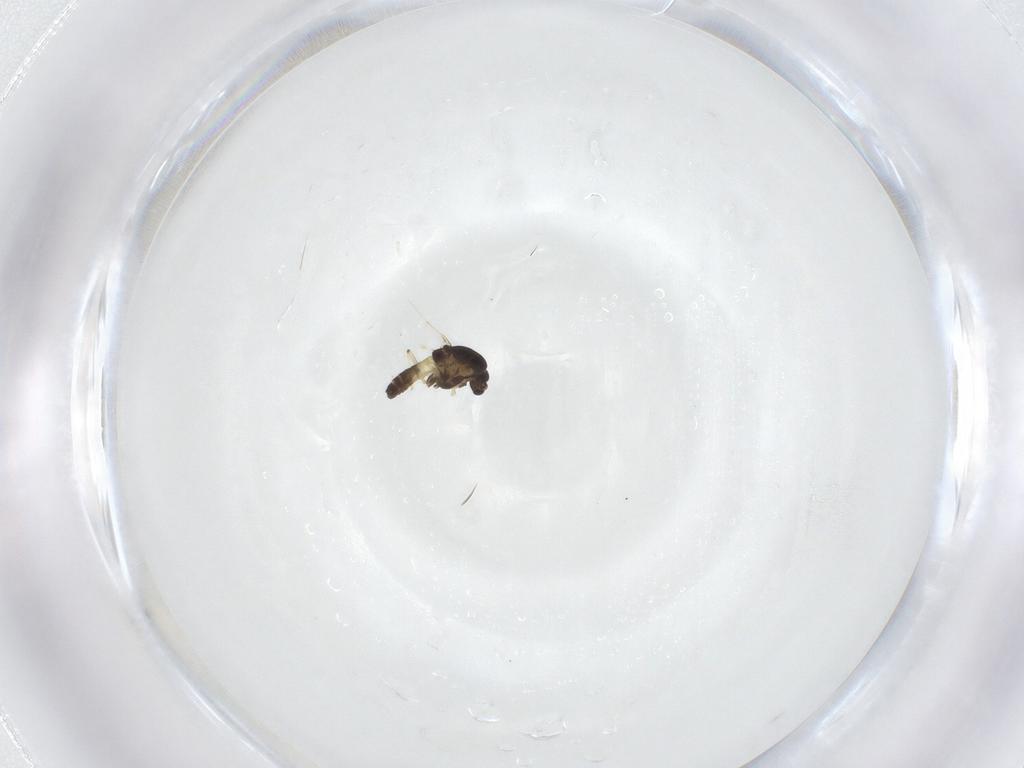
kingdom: Animalia
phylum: Arthropoda
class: Insecta
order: Diptera
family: Chironomidae
